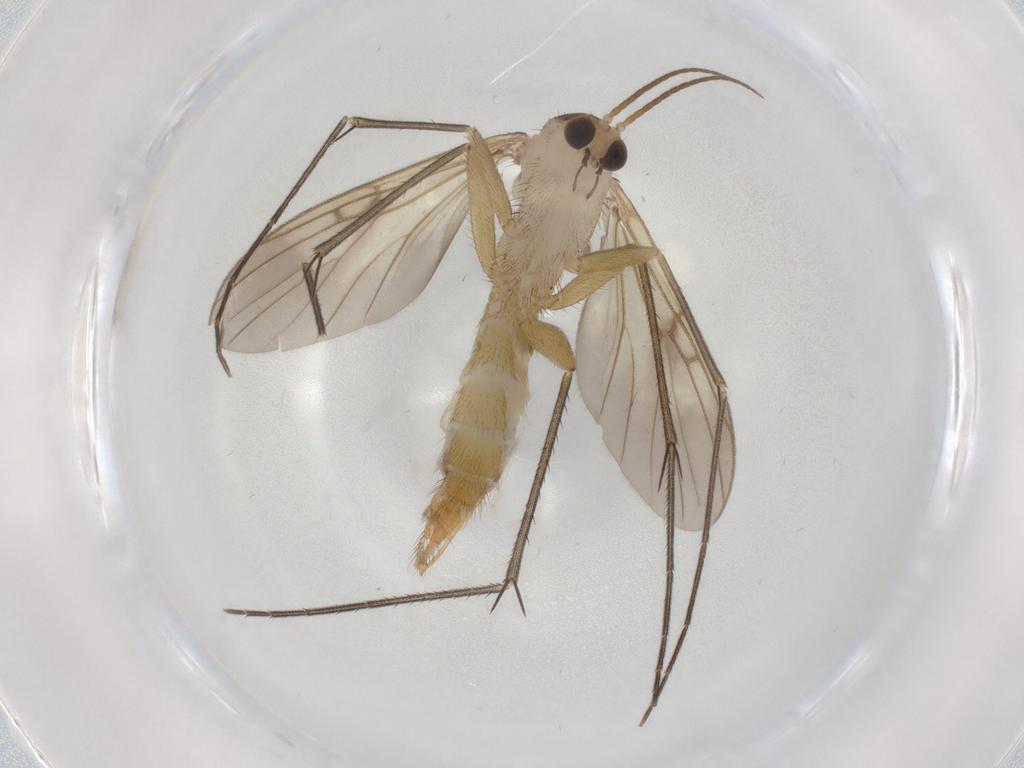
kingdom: Animalia
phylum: Arthropoda
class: Insecta
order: Diptera
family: Mycetophilidae
